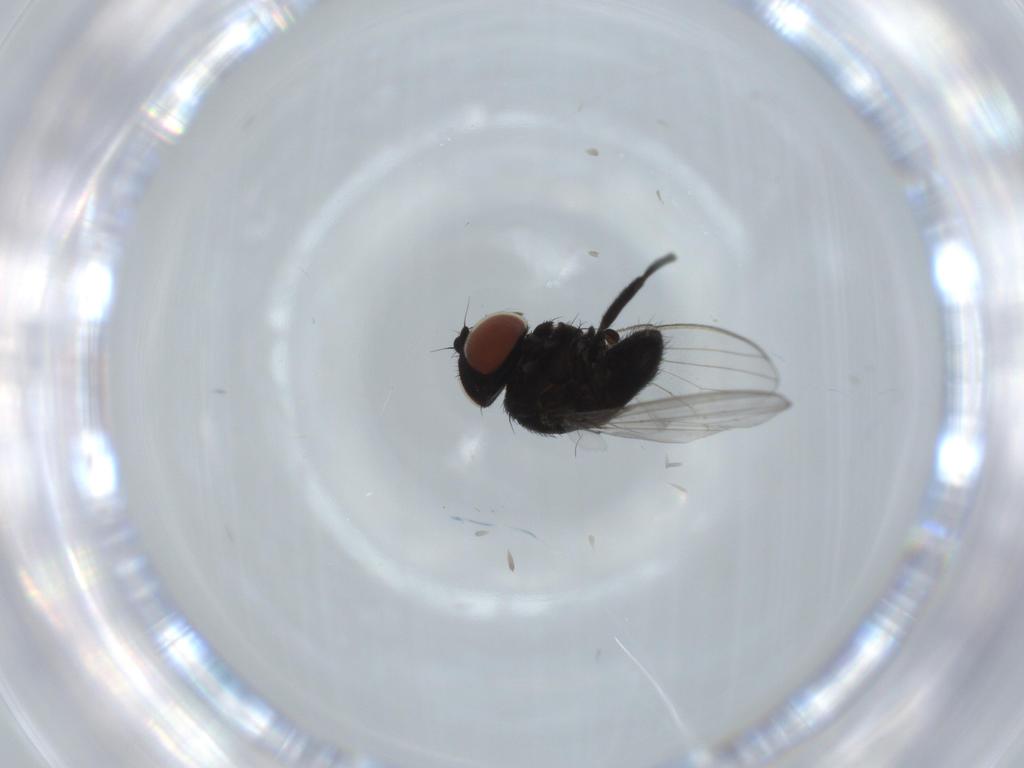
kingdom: Animalia
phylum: Arthropoda
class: Insecta
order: Diptera
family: Milichiidae
